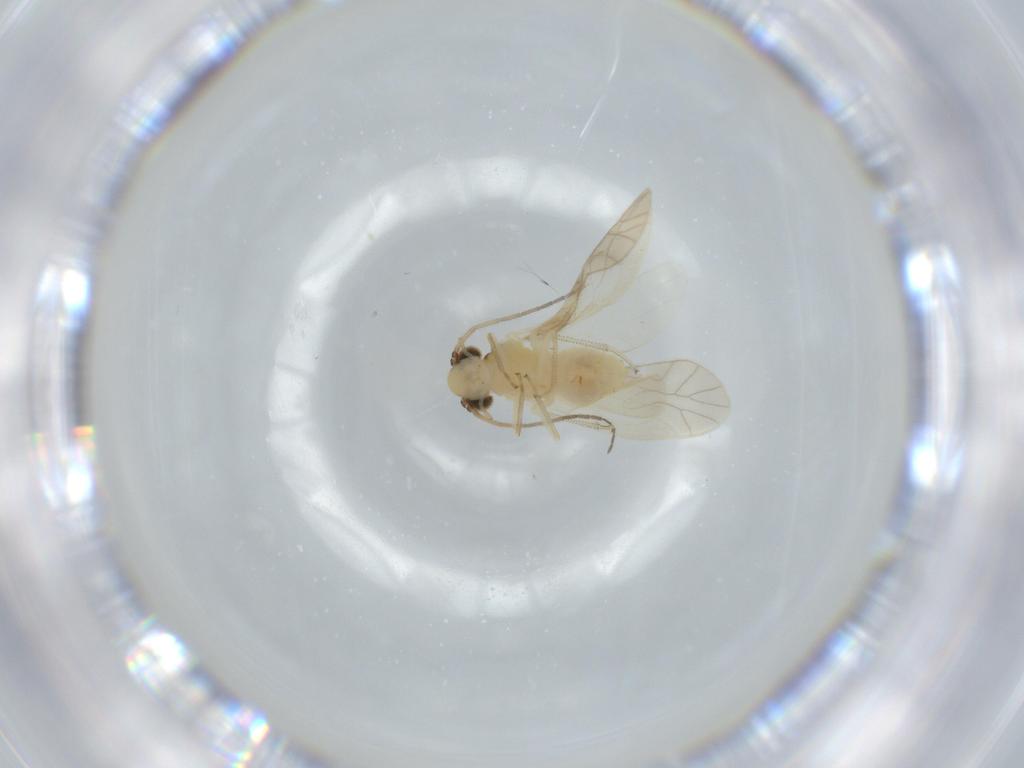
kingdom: Animalia
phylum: Arthropoda
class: Insecta
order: Psocodea
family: Caeciliusidae
